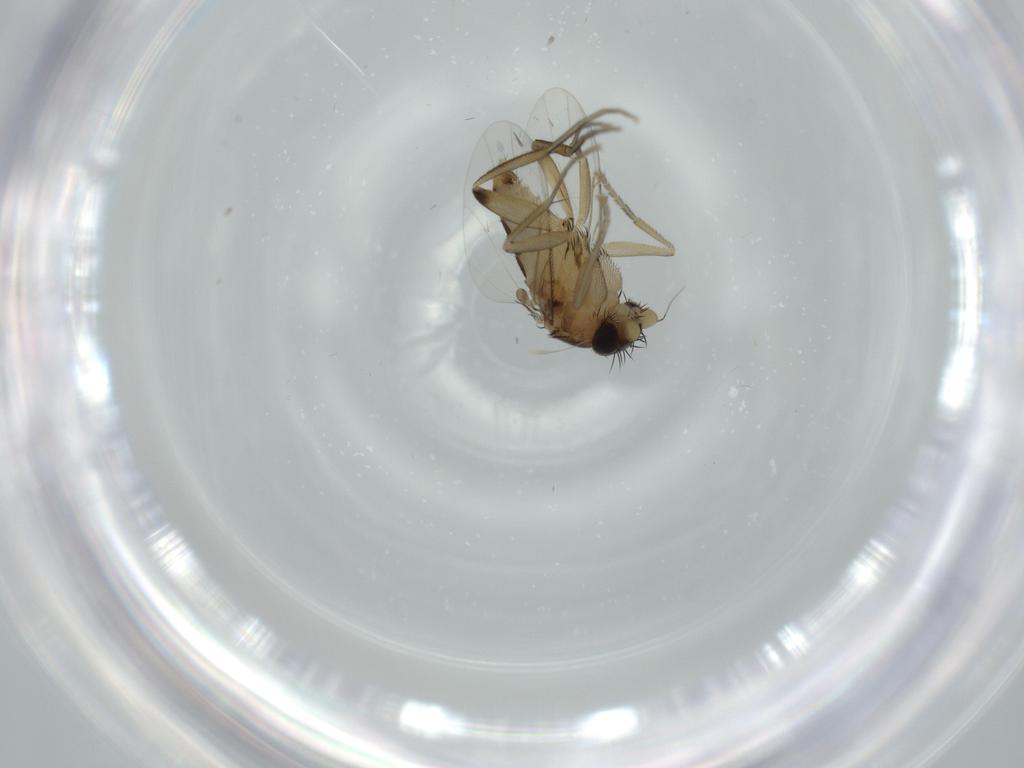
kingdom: Animalia
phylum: Arthropoda
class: Insecta
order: Diptera
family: Phoridae
